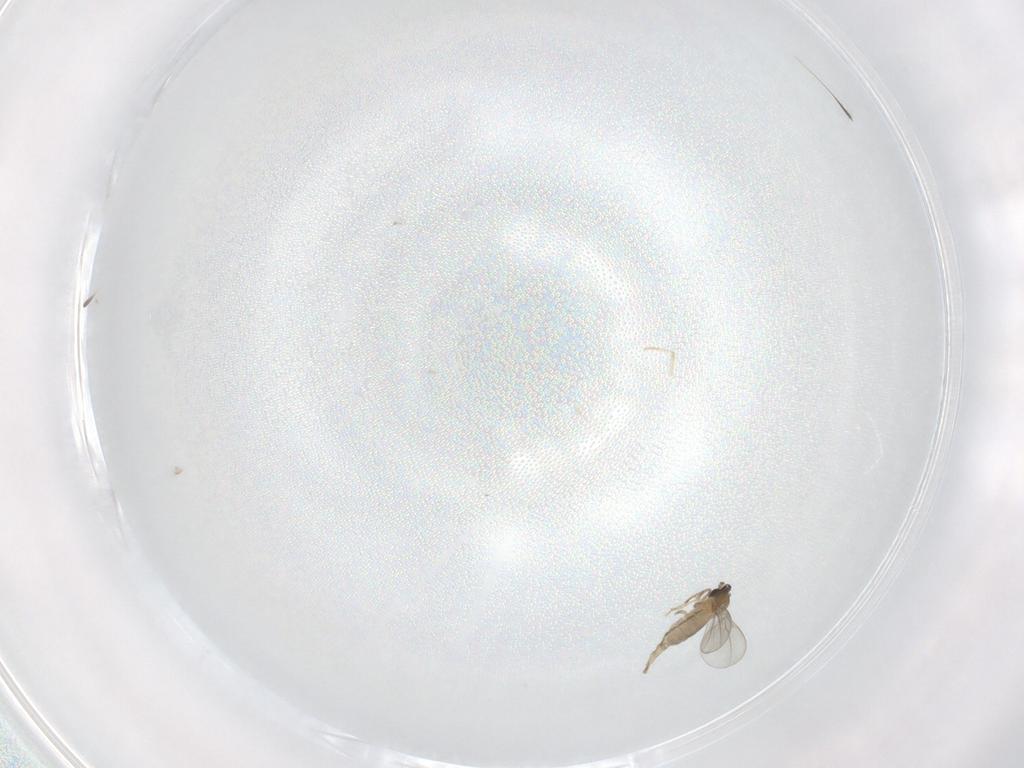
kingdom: Animalia
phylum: Arthropoda
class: Insecta
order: Diptera
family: Cecidomyiidae
